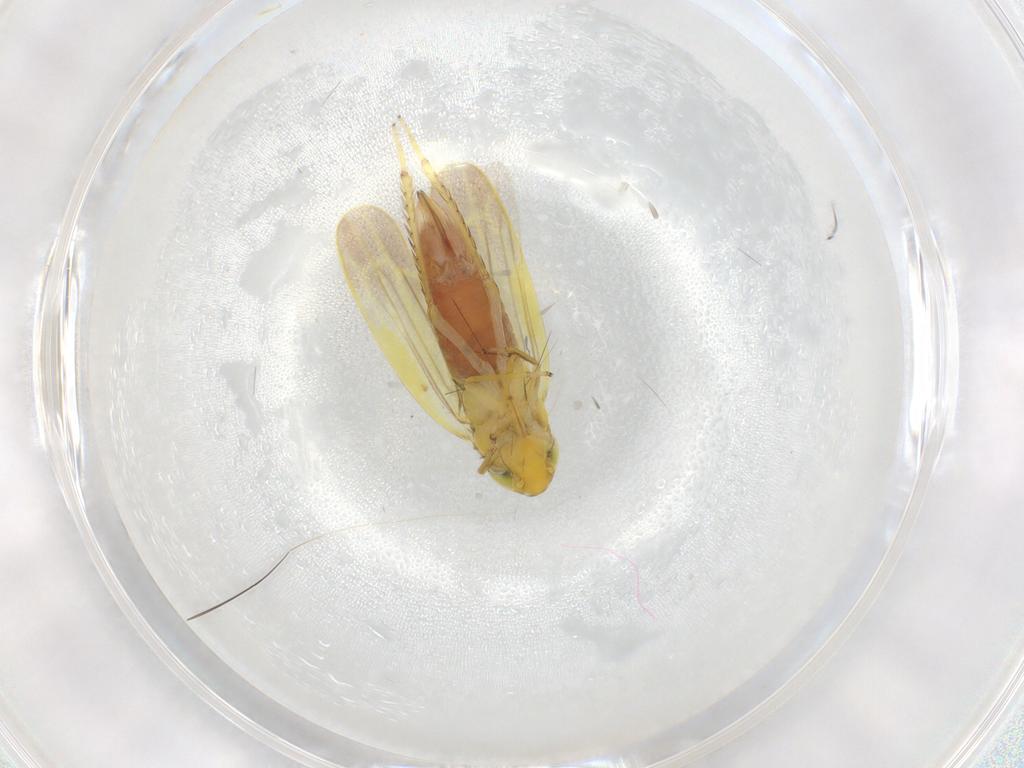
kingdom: Animalia
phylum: Arthropoda
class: Insecta
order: Hemiptera
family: Cicadellidae
